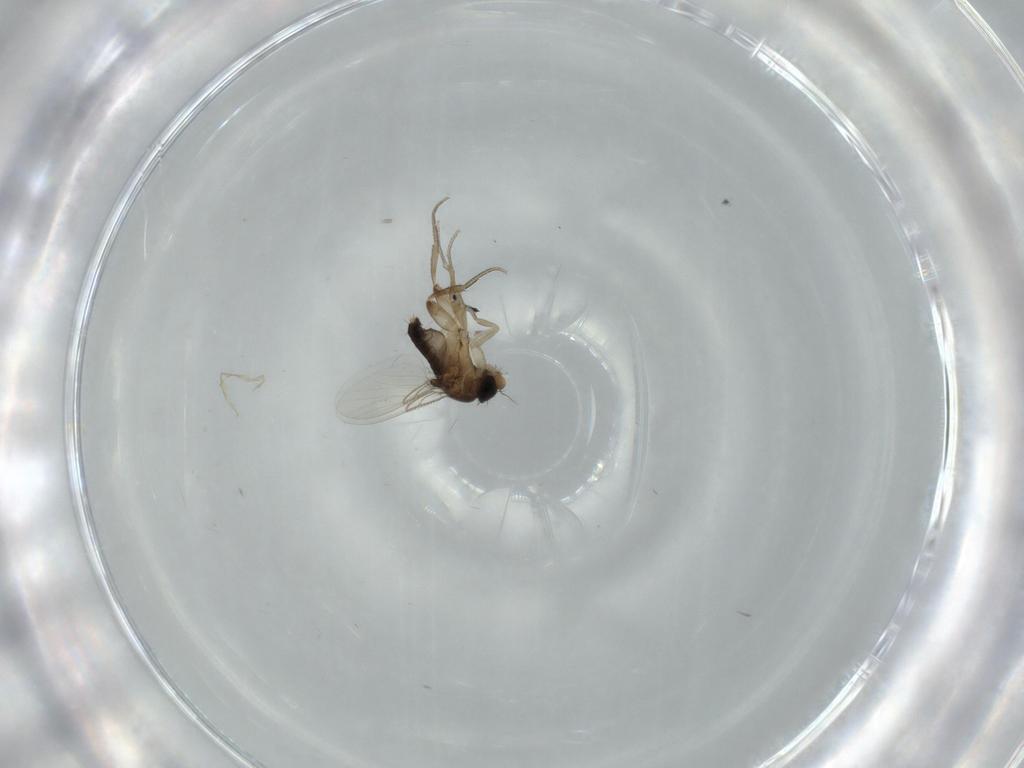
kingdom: Animalia
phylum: Arthropoda
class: Insecta
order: Diptera
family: Phoridae
